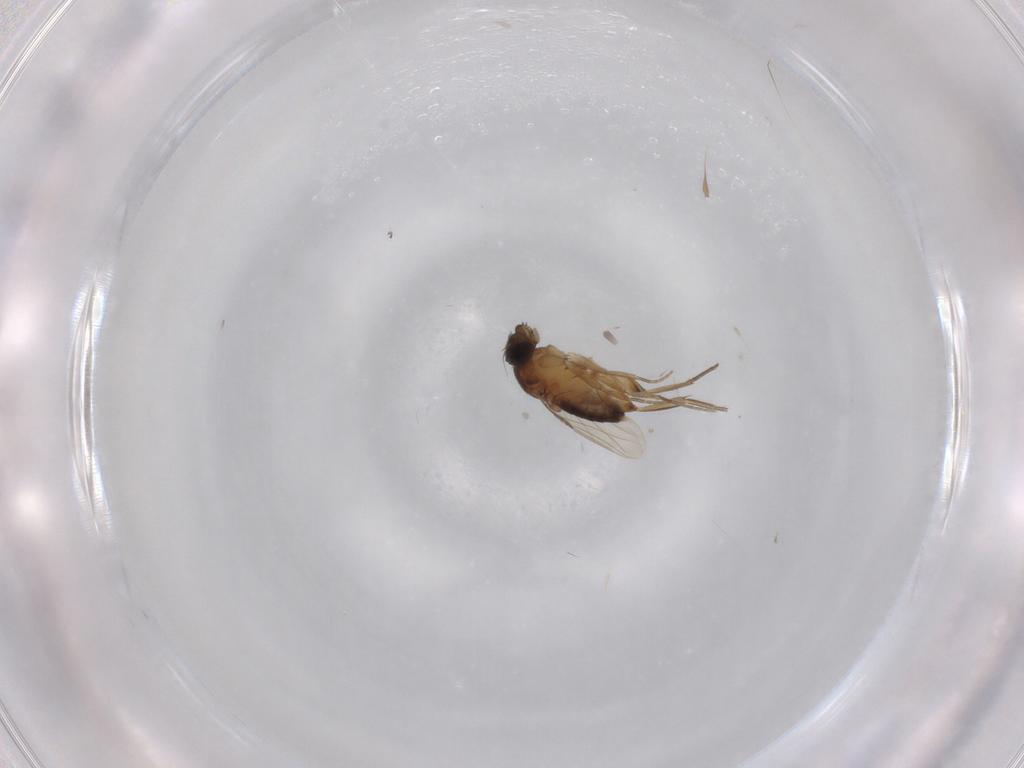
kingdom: Animalia
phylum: Arthropoda
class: Insecta
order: Diptera
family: Phoridae
